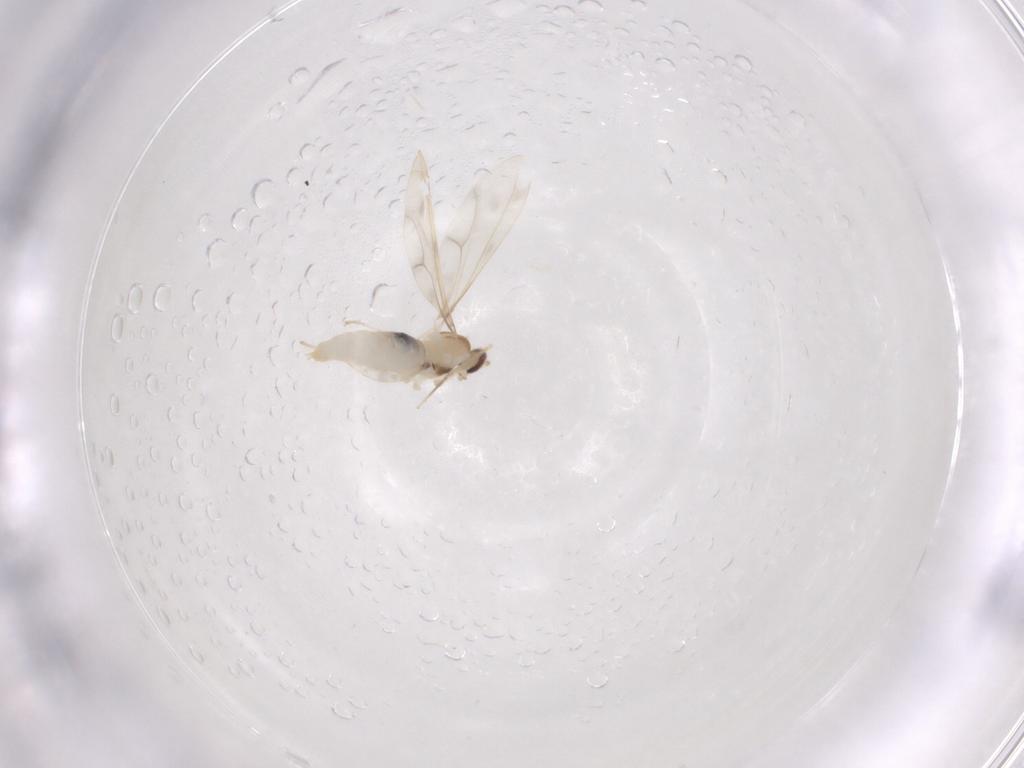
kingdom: Animalia
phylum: Arthropoda
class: Insecta
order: Diptera
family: Cecidomyiidae
